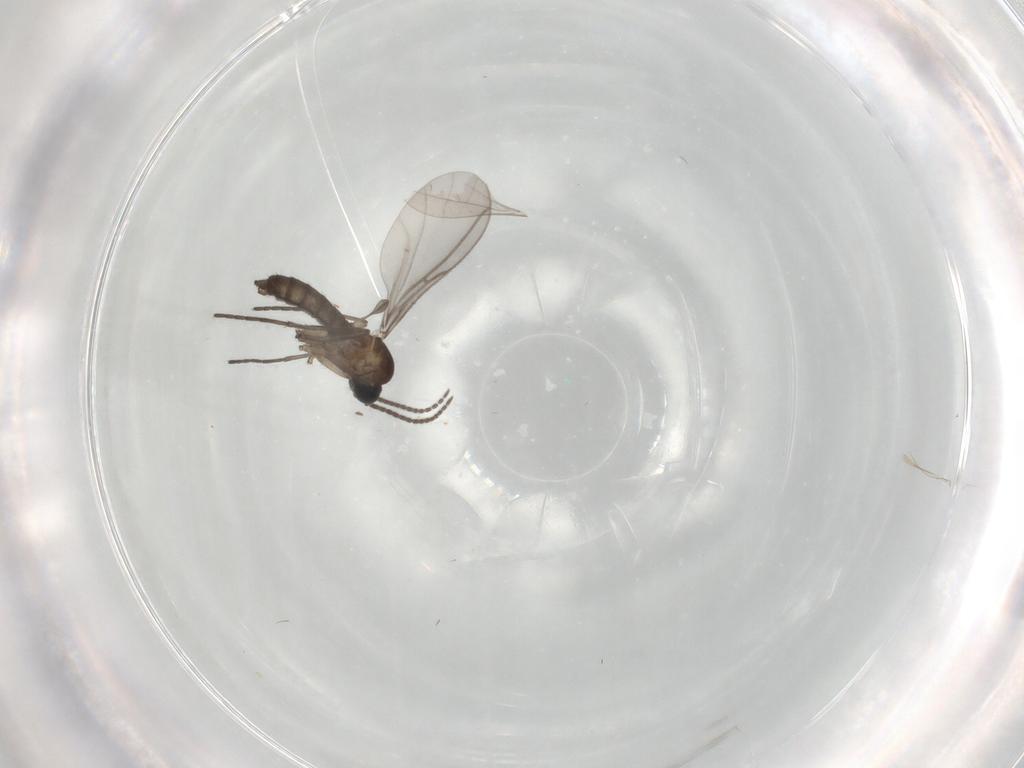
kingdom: Animalia
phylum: Arthropoda
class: Insecta
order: Diptera
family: Cecidomyiidae
